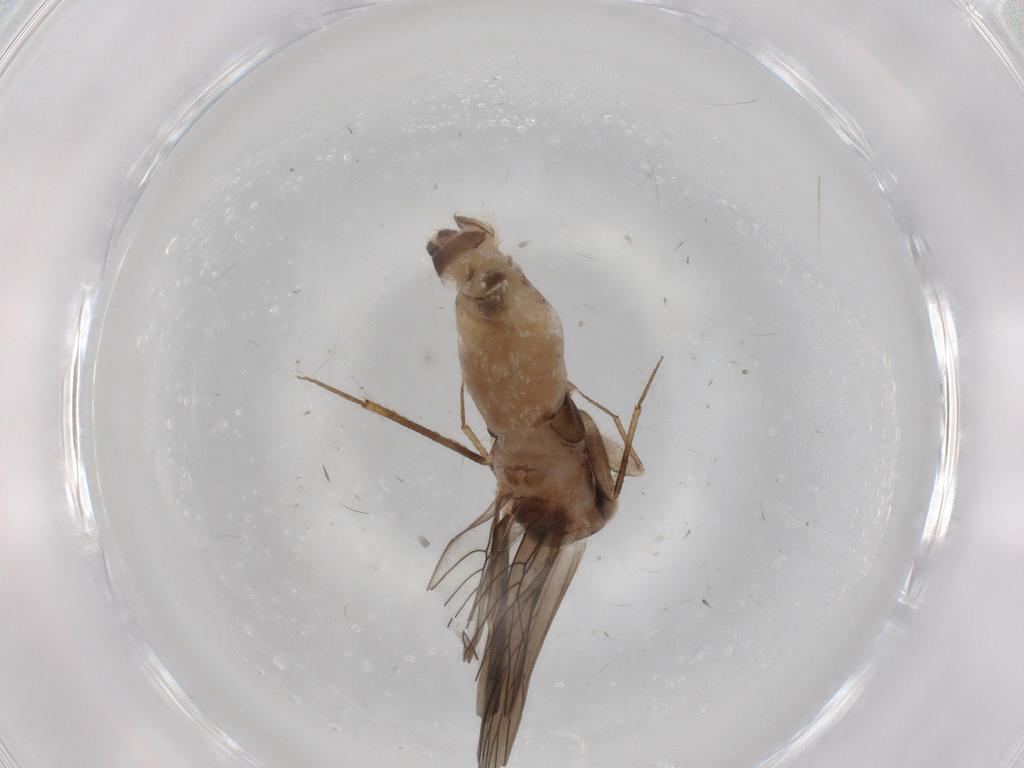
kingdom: Animalia
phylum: Arthropoda
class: Insecta
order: Psocodea
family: Lepidopsocidae
